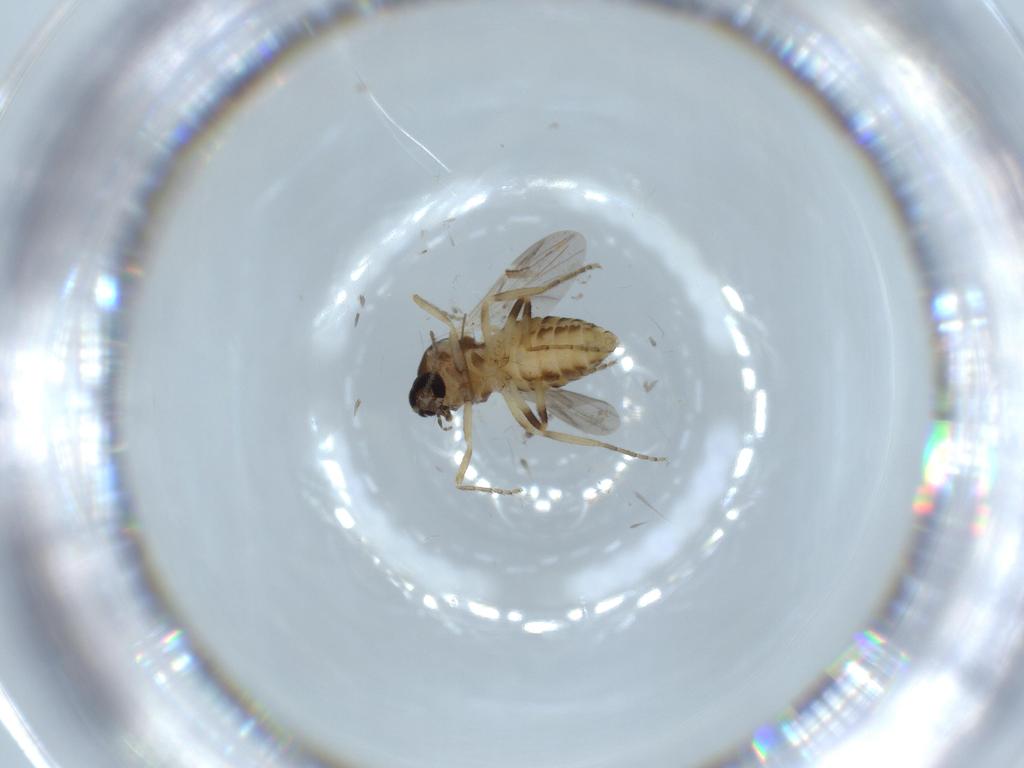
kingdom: Animalia
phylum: Arthropoda
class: Insecta
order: Diptera
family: Ceratopogonidae
